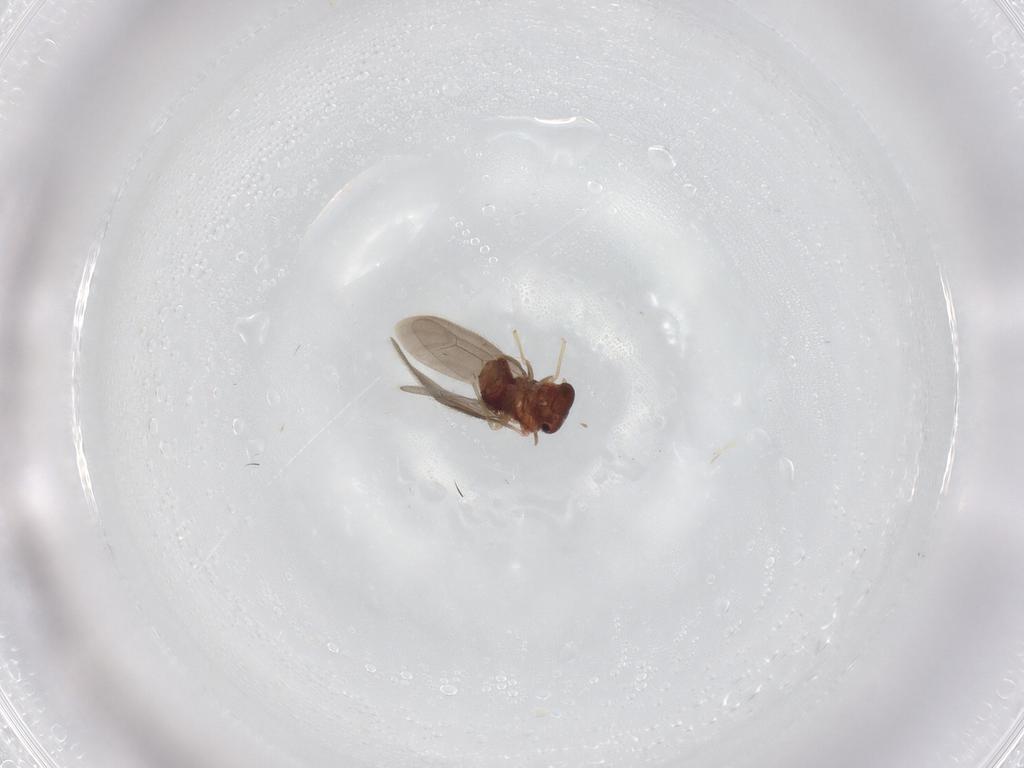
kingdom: Animalia
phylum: Arthropoda
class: Insecta
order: Psocodea
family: Archipsocidae
